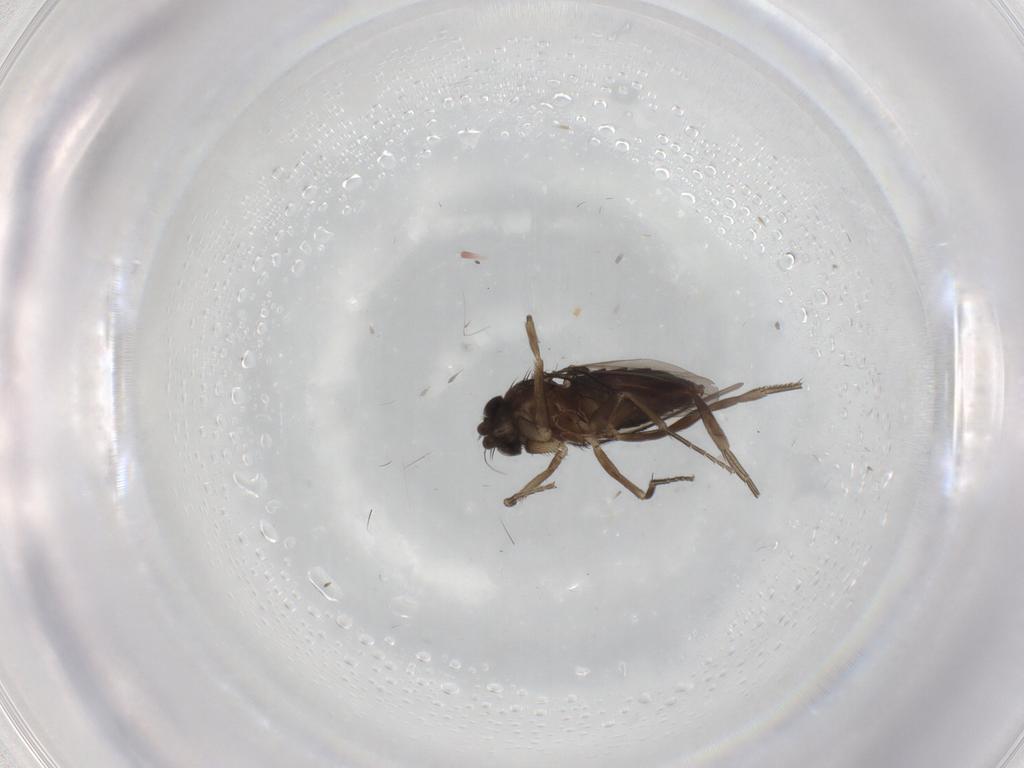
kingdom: Animalia
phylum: Arthropoda
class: Insecta
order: Diptera
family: Phoridae
